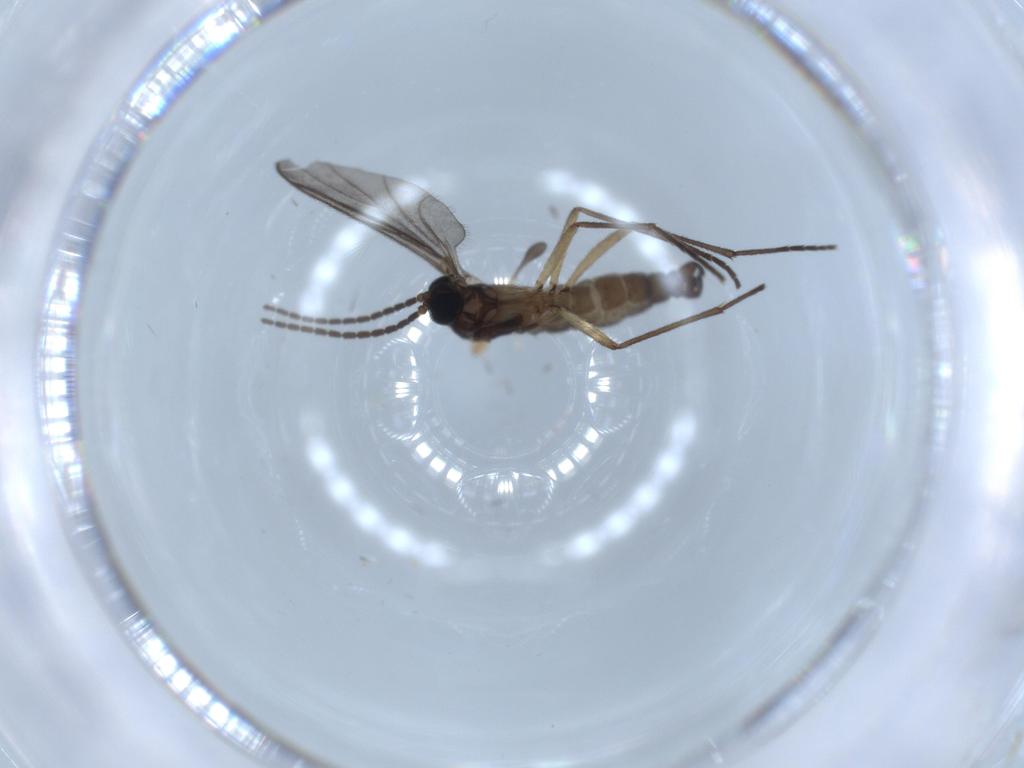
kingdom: Animalia
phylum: Arthropoda
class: Insecta
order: Diptera
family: Sciaridae
